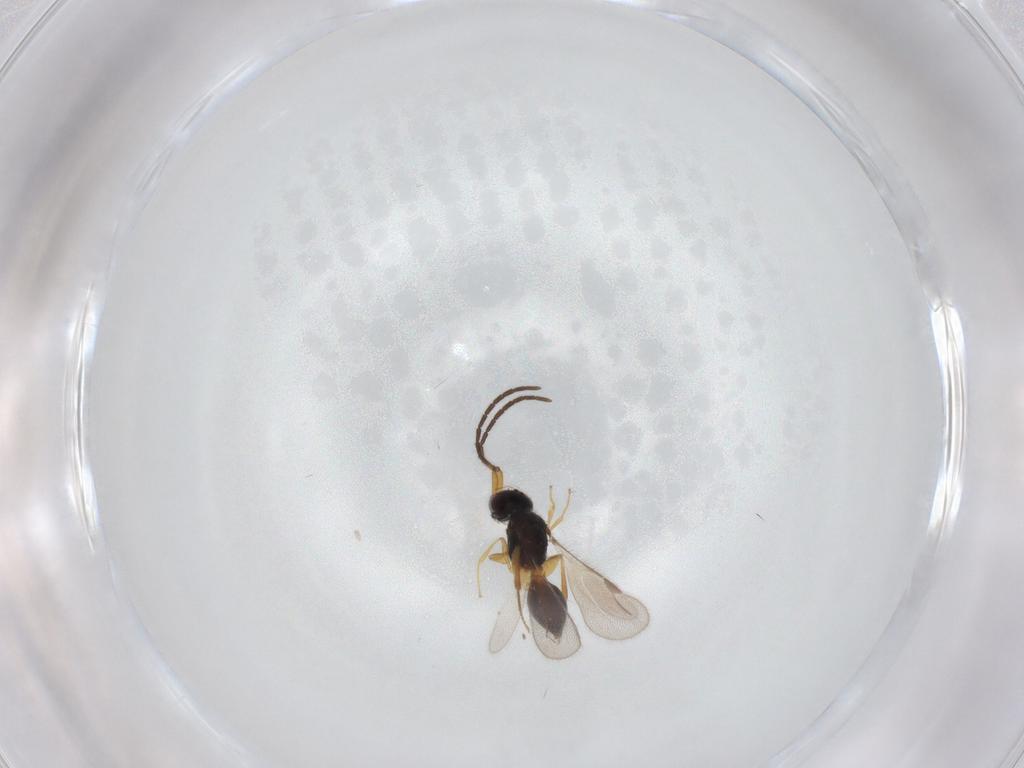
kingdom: Animalia
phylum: Arthropoda
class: Insecta
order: Hymenoptera
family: Megaspilidae
